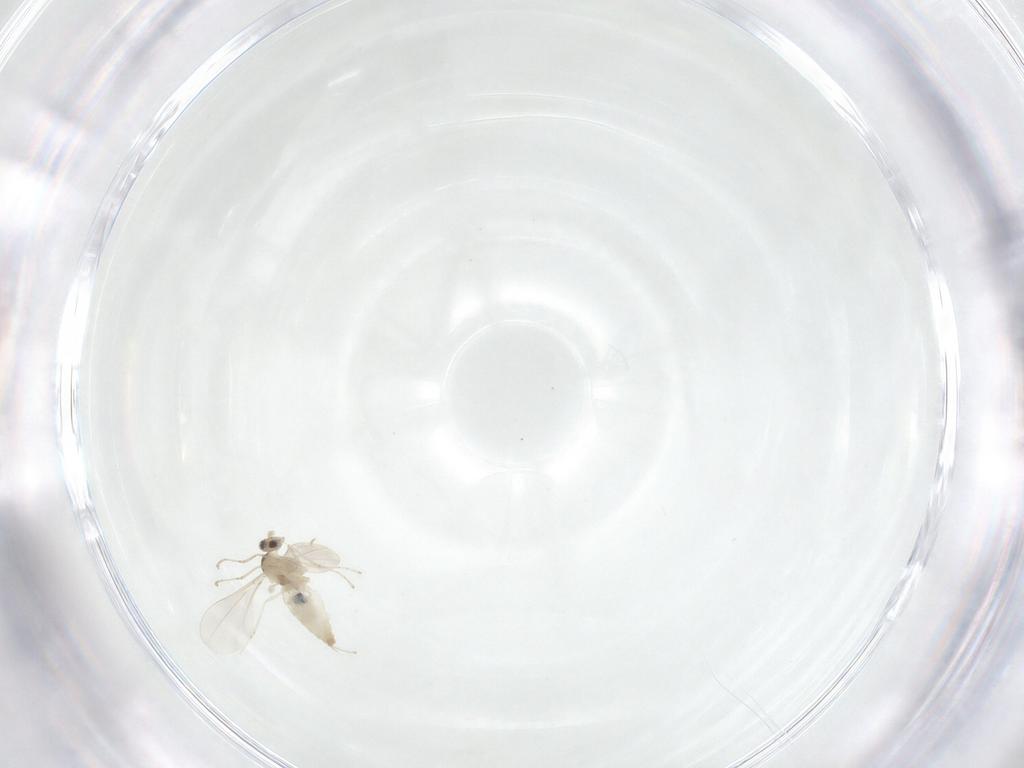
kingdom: Animalia
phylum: Arthropoda
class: Insecta
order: Diptera
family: Cecidomyiidae
